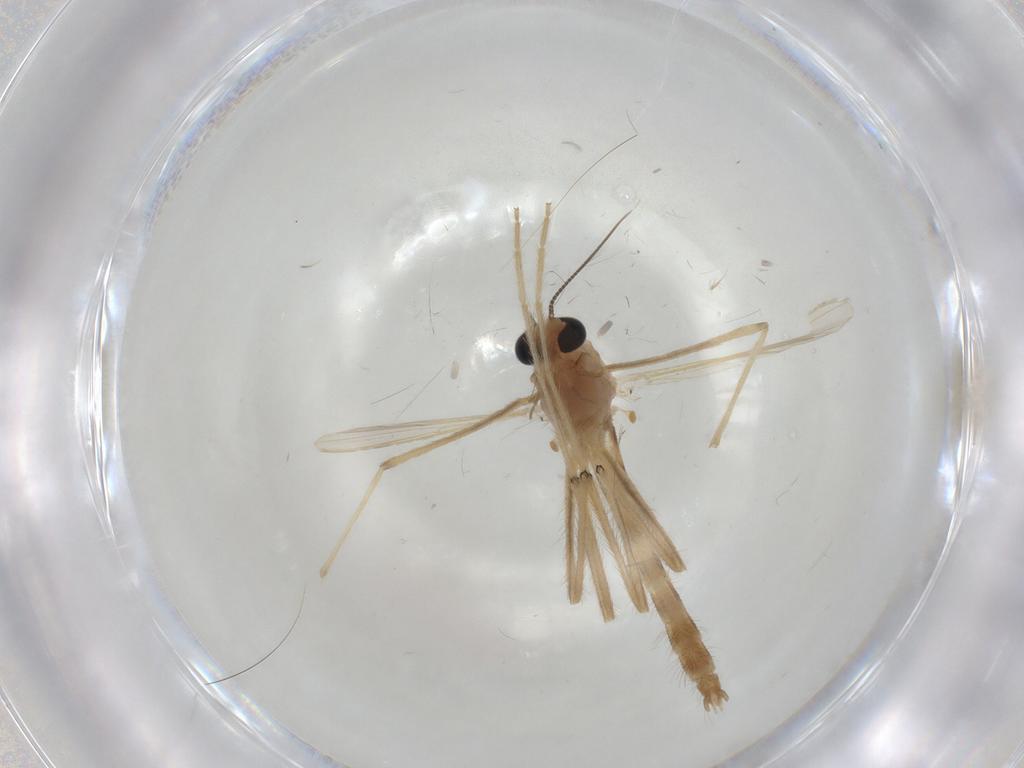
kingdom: Animalia
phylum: Arthropoda
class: Insecta
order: Diptera
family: Chironomidae
